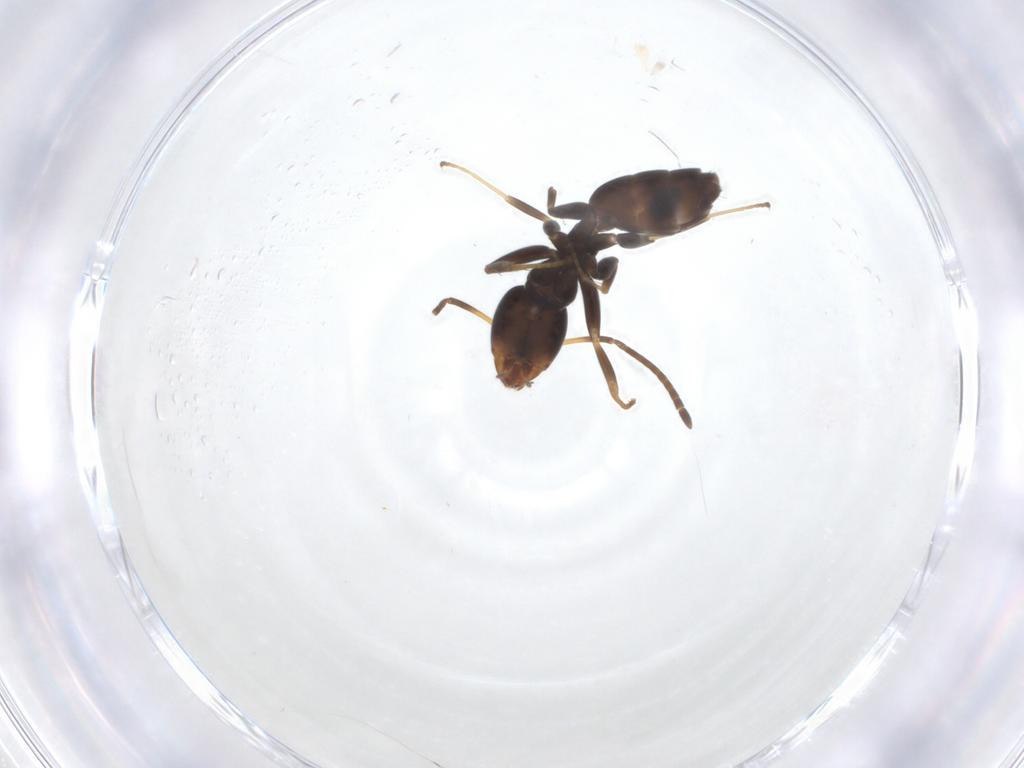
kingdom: Animalia
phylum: Arthropoda
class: Insecta
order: Hymenoptera
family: Formicidae
